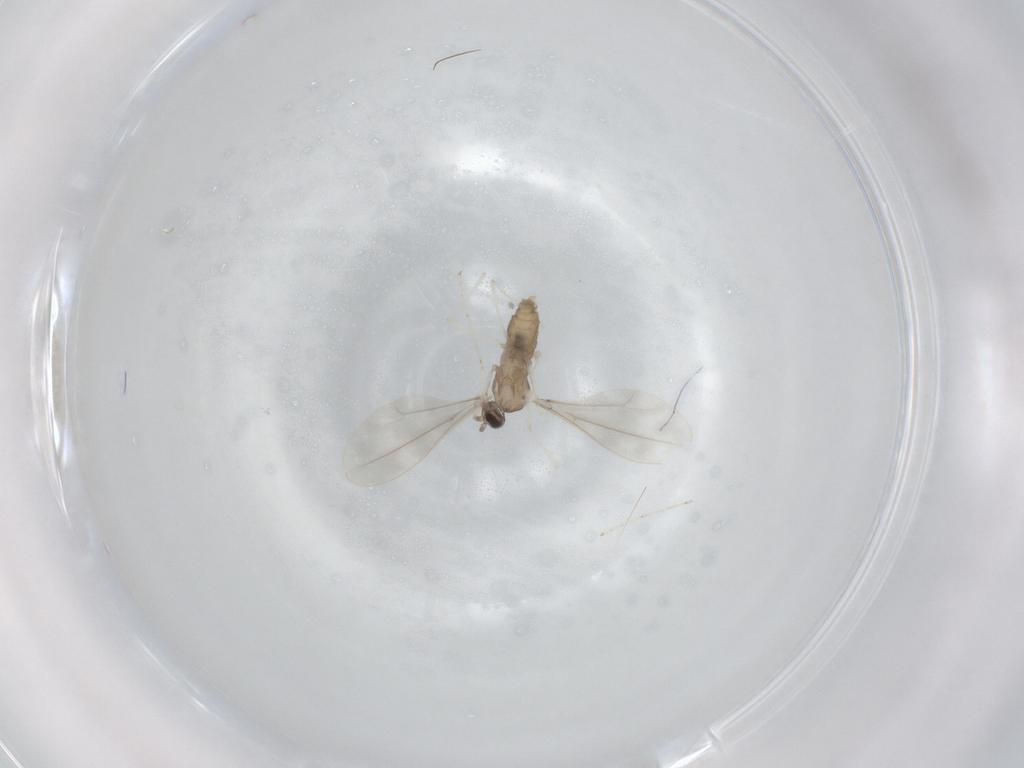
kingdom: Animalia
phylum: Arthropoda
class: Insecta
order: Diptera
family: Cecidomyiidae
